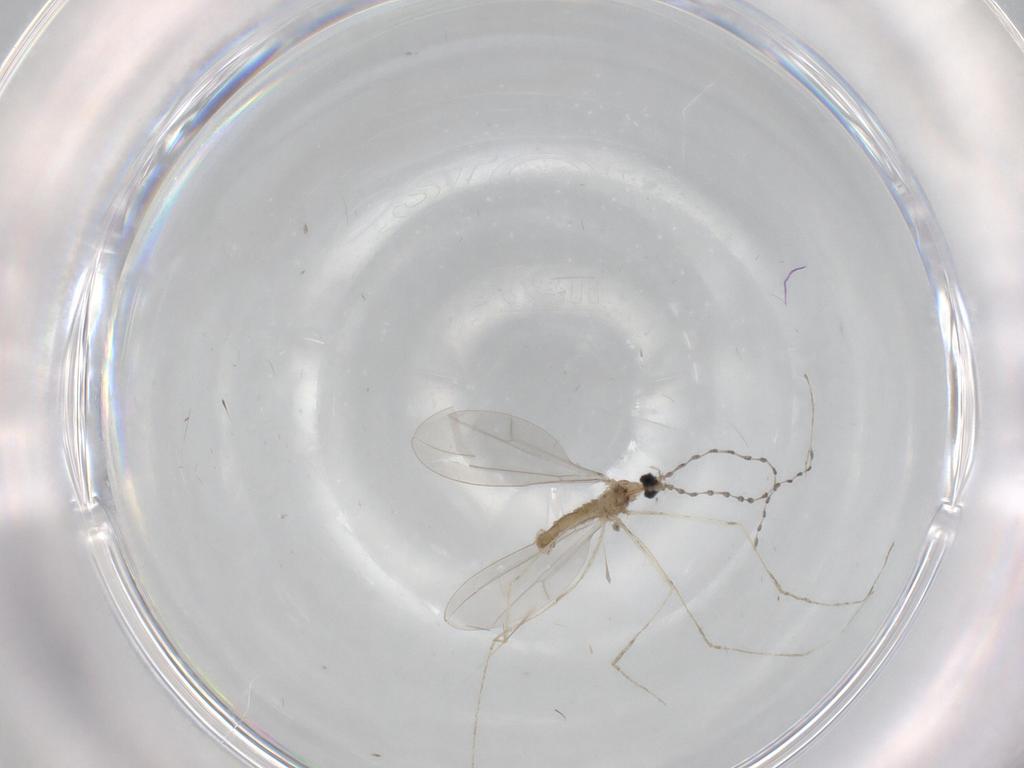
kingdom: Animalia
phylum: Arthropoda
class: Insecta
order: Diptera
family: Cecidomyiidae
